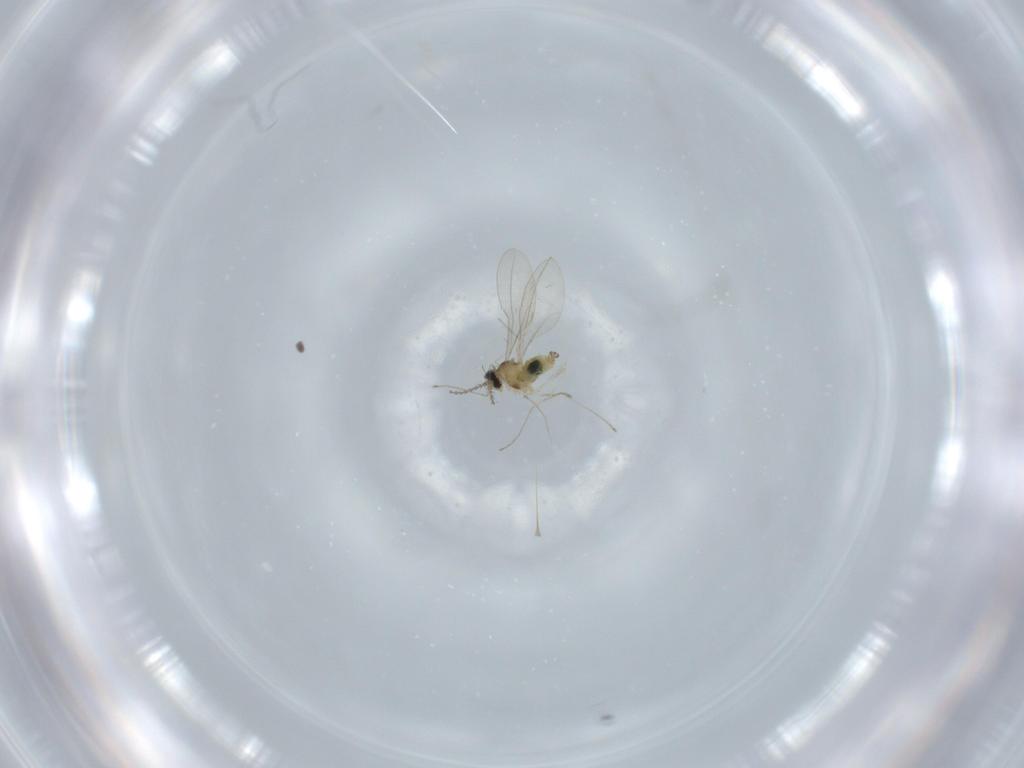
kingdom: Animalia
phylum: Arthropoda
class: Insecta
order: Diptera
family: Cecidomyiidae
